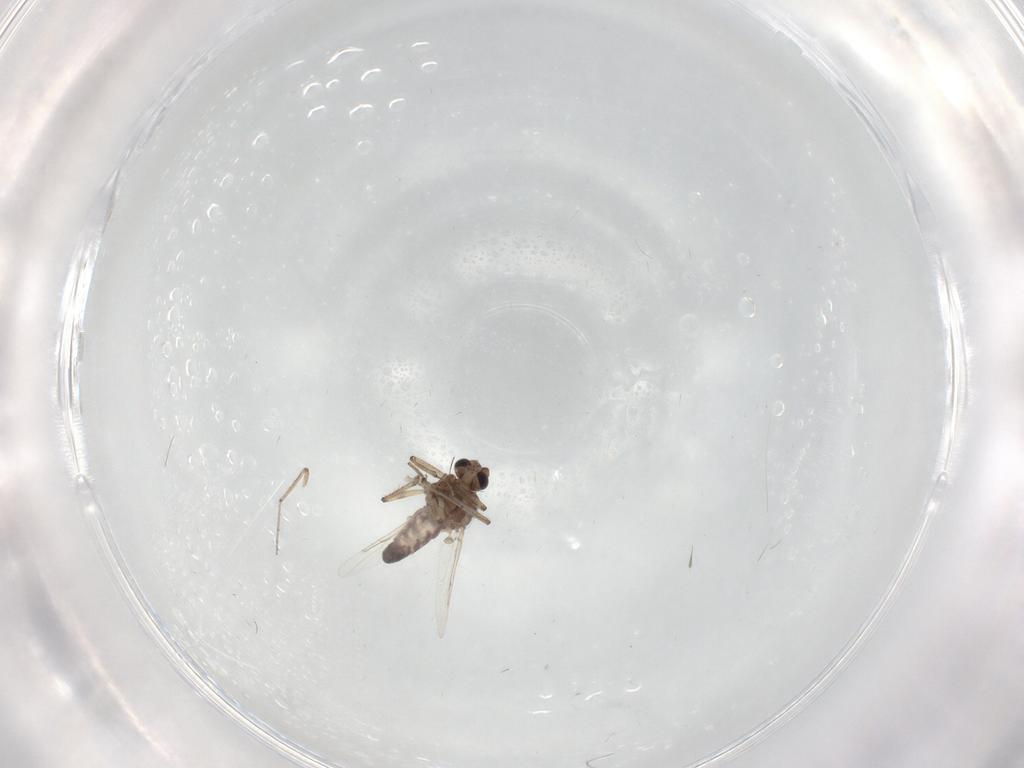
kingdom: Animalia
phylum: Arthropoda
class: Insecta
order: Diptera
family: Ceratopogonidae
